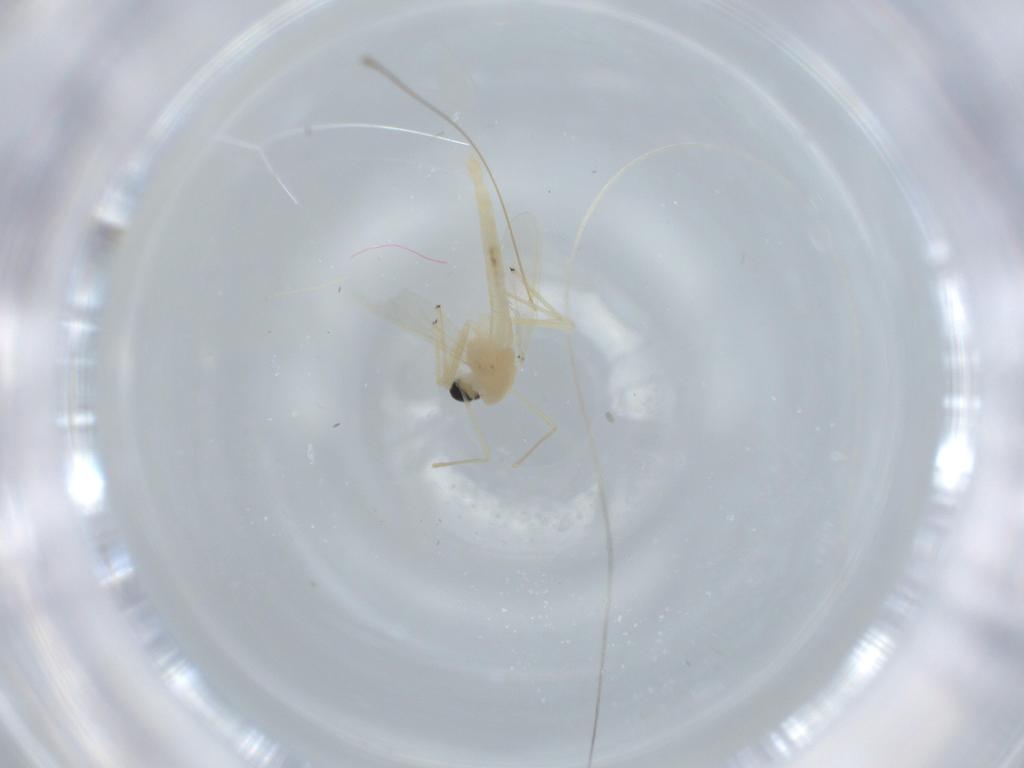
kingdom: Animalia
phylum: Arthropoda
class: Insecta
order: Diptera
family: Chironomidae
